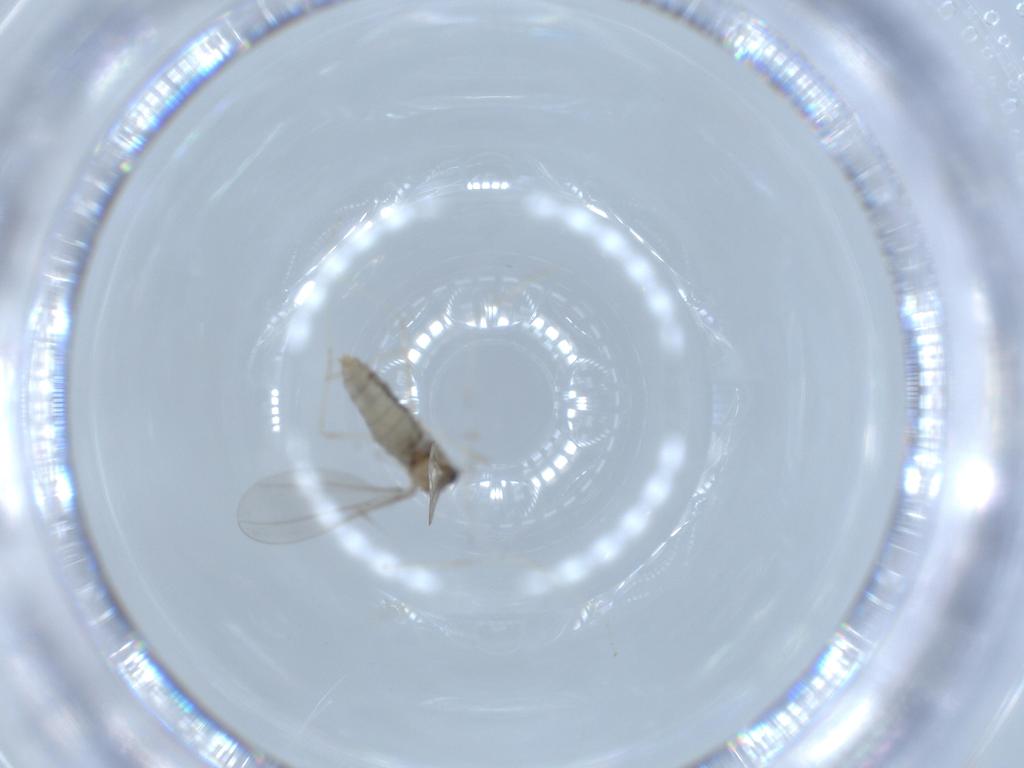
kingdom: Animalia
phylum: Arthropoda
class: Insecta
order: Diptera
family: Cecidomyiidae
